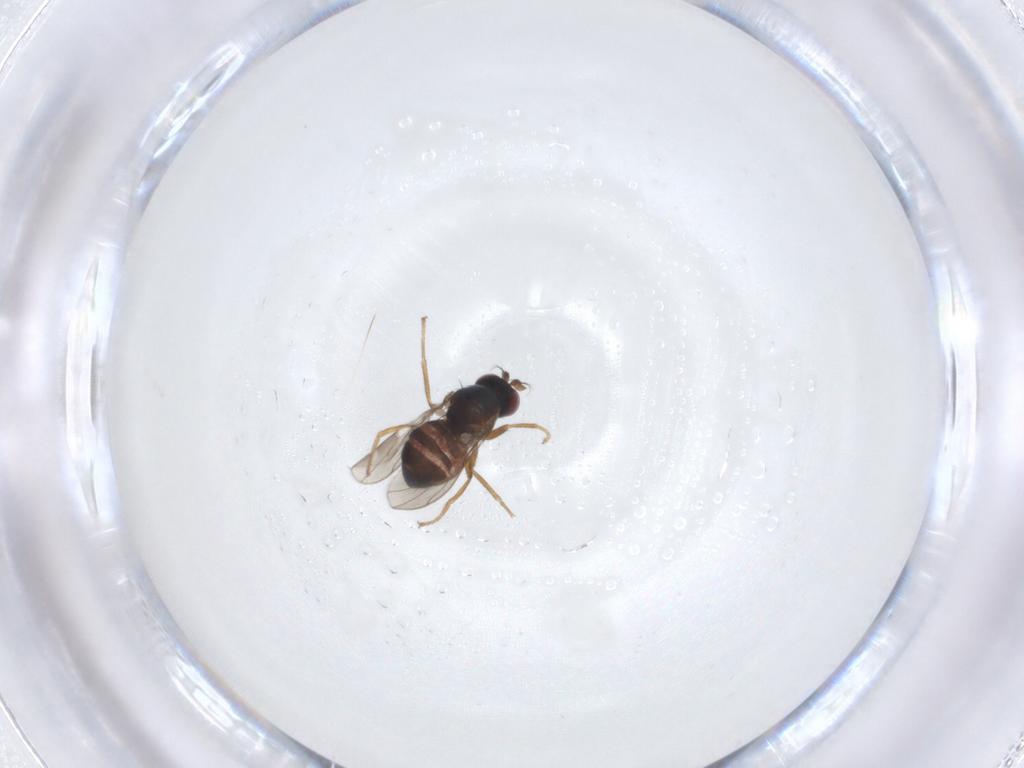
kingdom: Animalia
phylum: Arthropoda
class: Insecta
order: Diptera
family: Ephydridae
